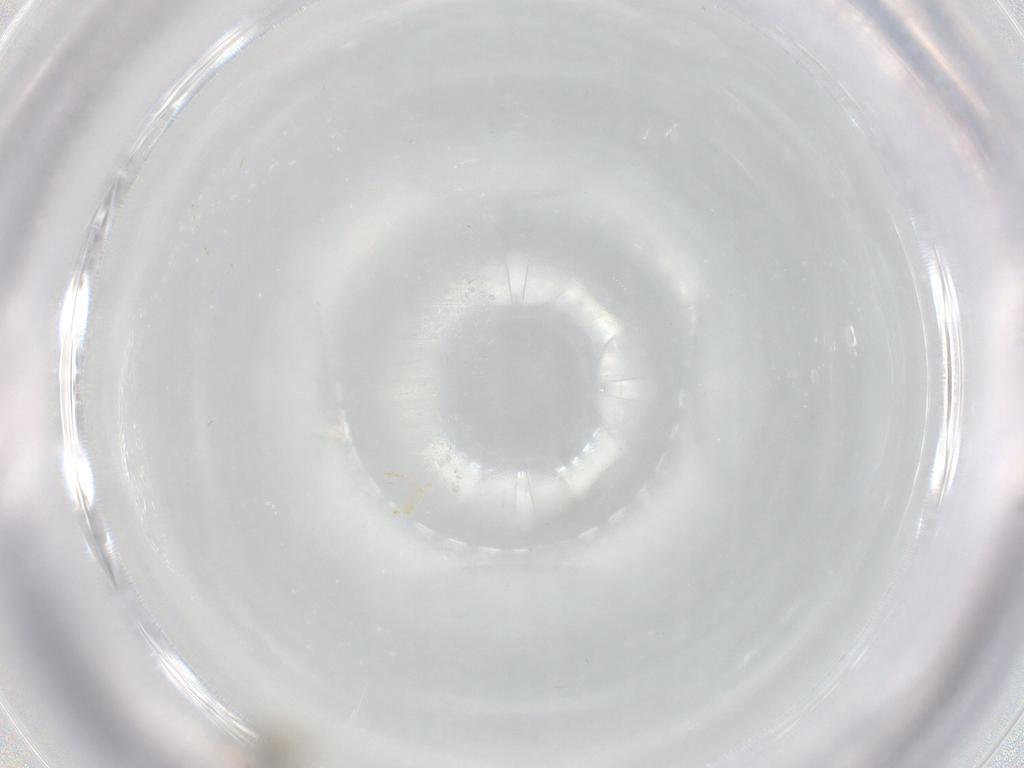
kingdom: Animalia
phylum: Arthropoda
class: Insecta
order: Diptera
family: Cecidomyiidae
